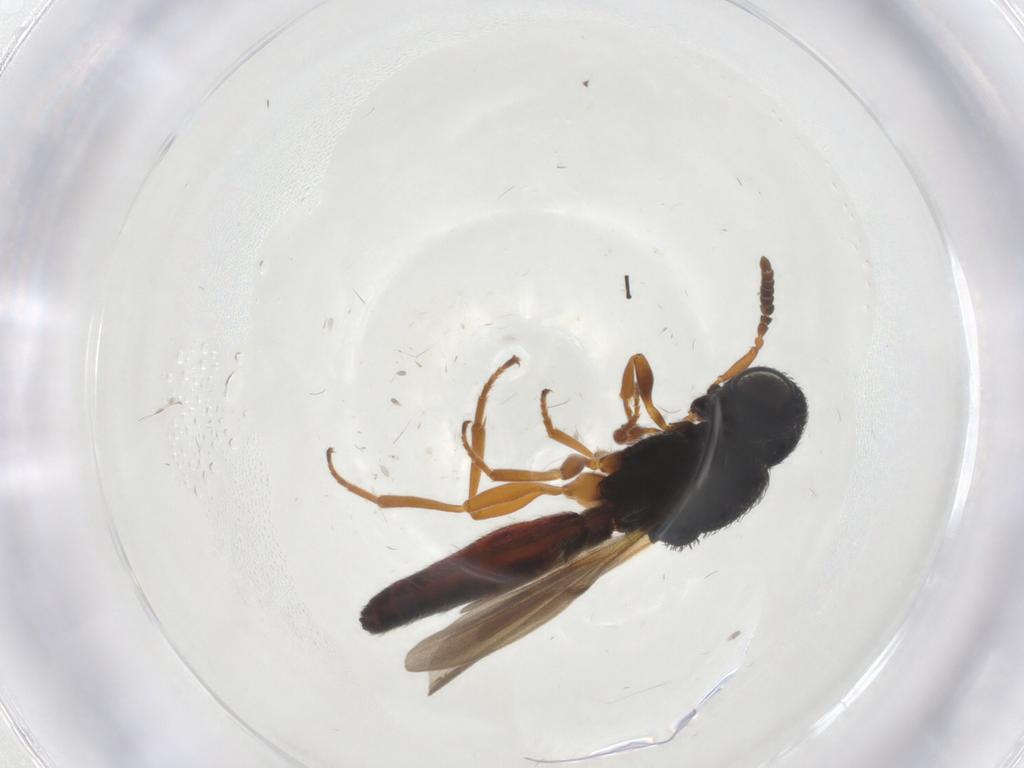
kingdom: Animalia
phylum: Arthropoda
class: Insecta
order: Hymenoptera
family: Scelionidae
